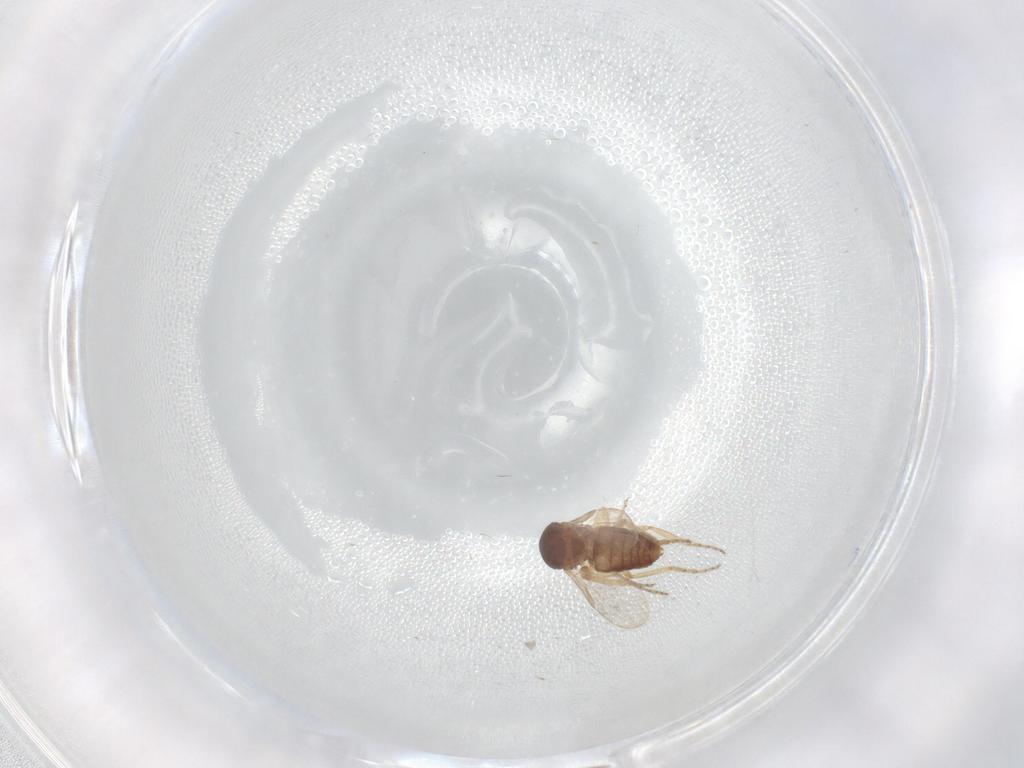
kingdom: Animalia
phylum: Arthropoda
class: Insecta
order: Diptera
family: Ceratopogonidae
